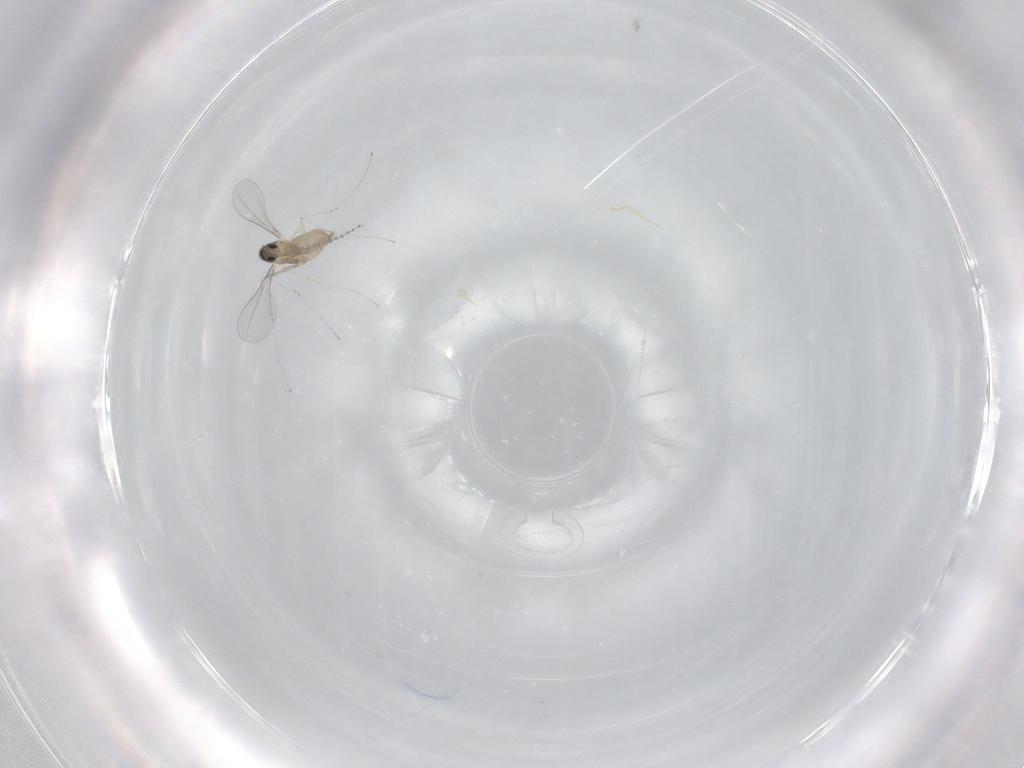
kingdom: Animalia
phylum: Arthropoda
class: Insecta
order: Diptera
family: Cecidomyiidae
